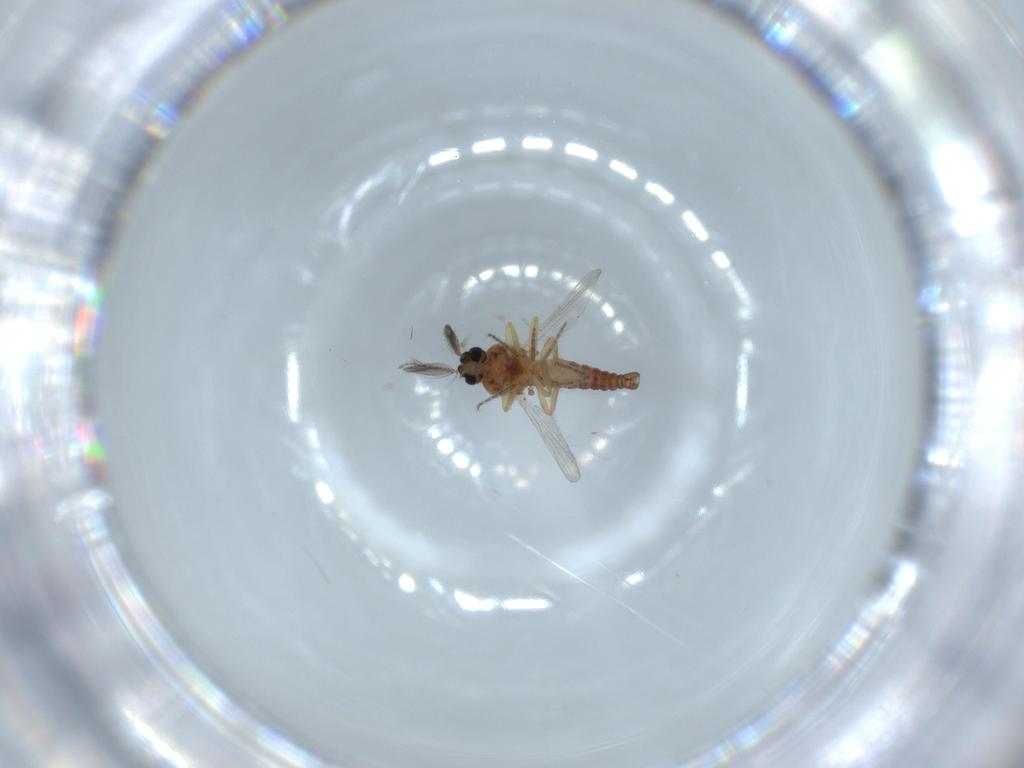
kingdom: Animalia
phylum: Arthropoda
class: Insecta
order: Diptera
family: Ceratopogonidae
